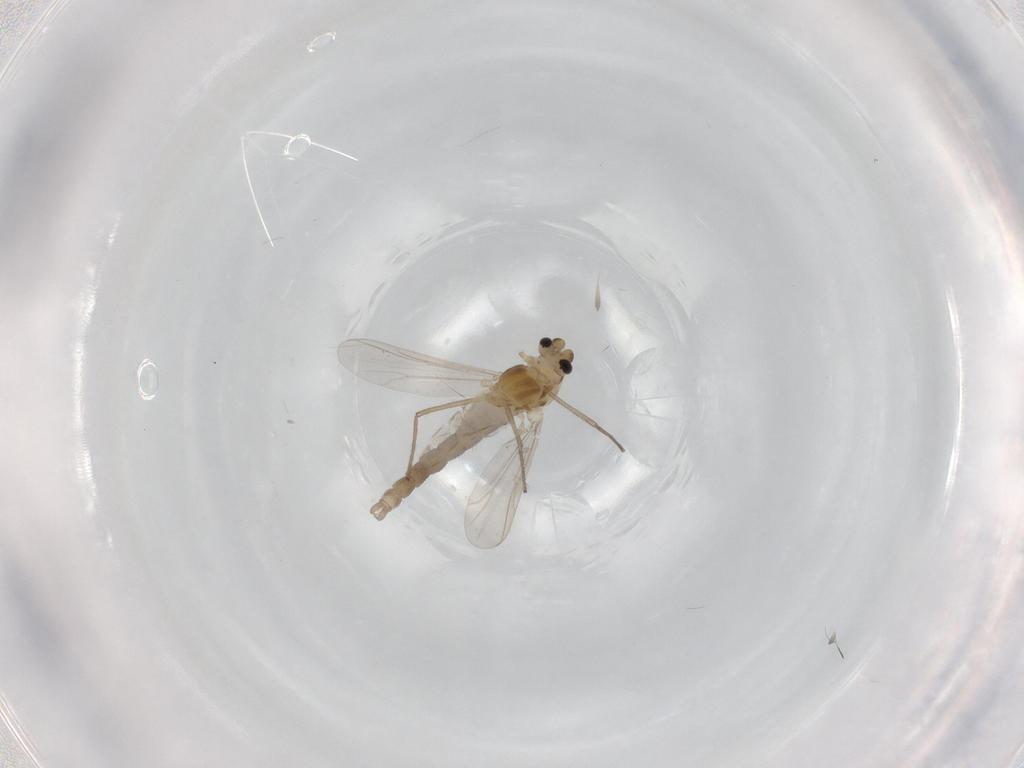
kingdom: Animalia
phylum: Arthropoda
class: Insecta
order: Diptera
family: Chironomidae
